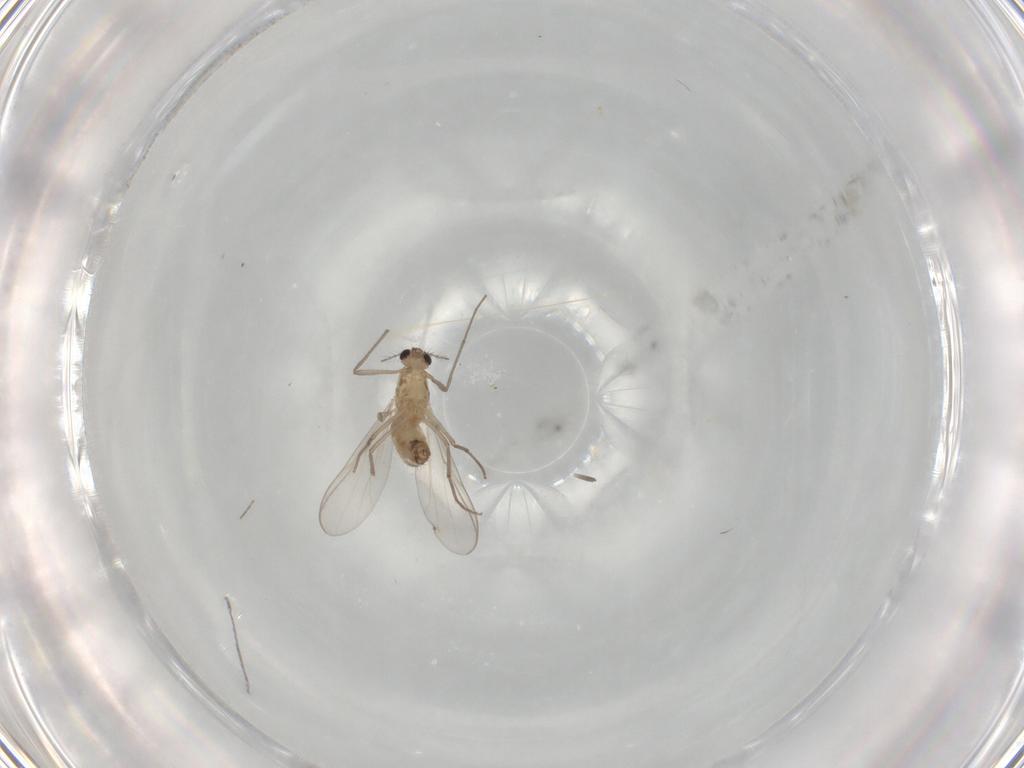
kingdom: Animalia
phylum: Arthropoda
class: Insecta
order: Diptera
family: Chironomidae
